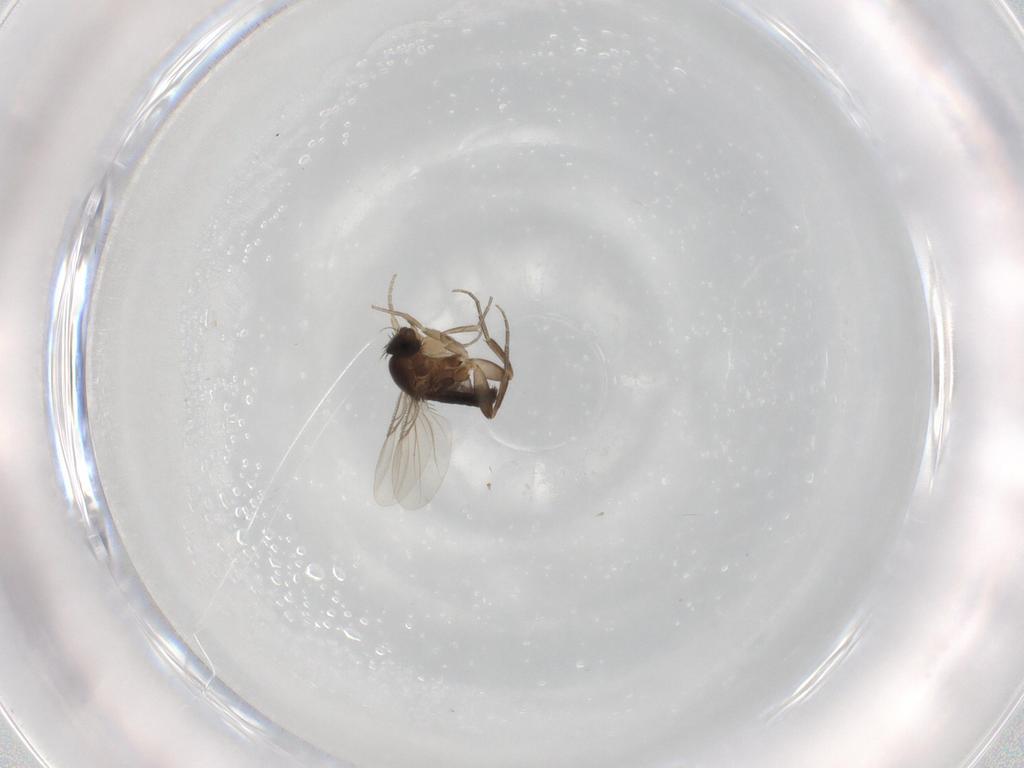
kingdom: Animalia
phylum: Arthropoda
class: Insecta
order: Diptera
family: Phoridae
